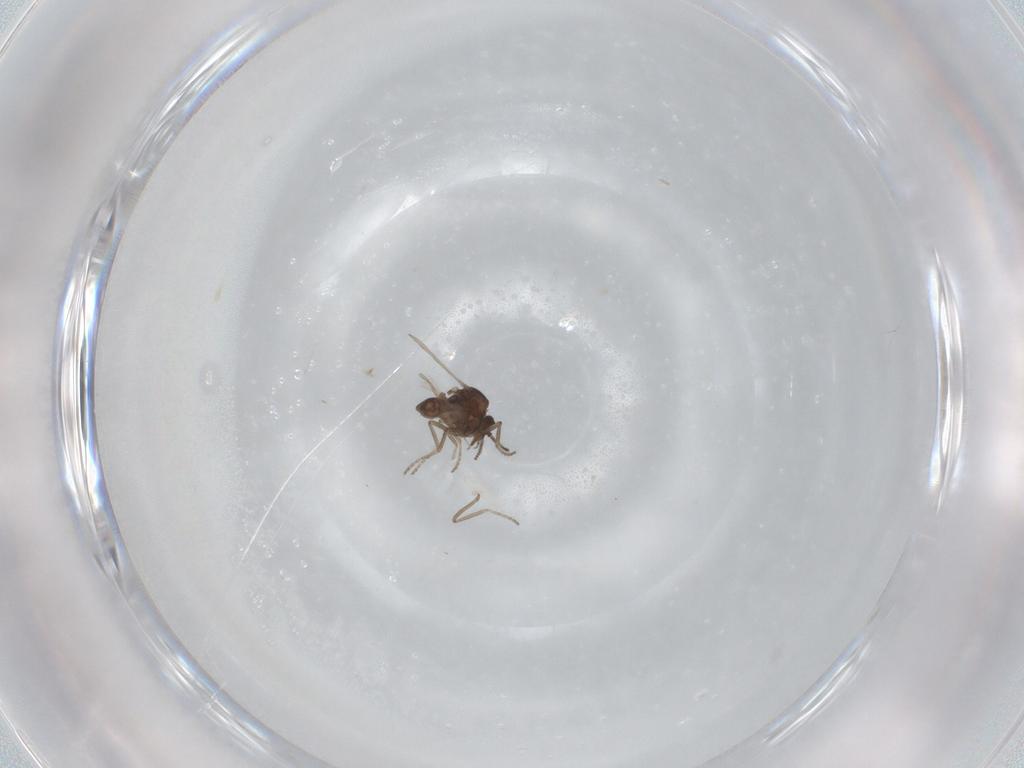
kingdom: Animalia
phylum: Arthropoda
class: Insecta
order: Diptera
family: Ceratopogonidae
